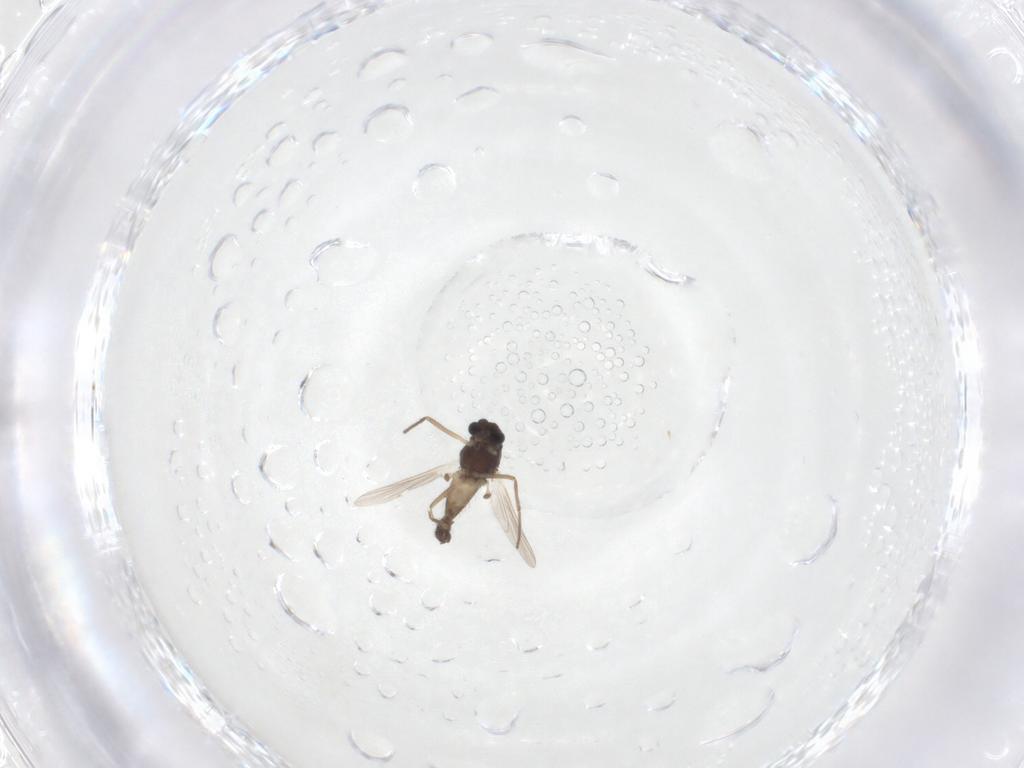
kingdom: Animalia
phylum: Arthropoda
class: Insecta
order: Diptera
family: Chironomidae
